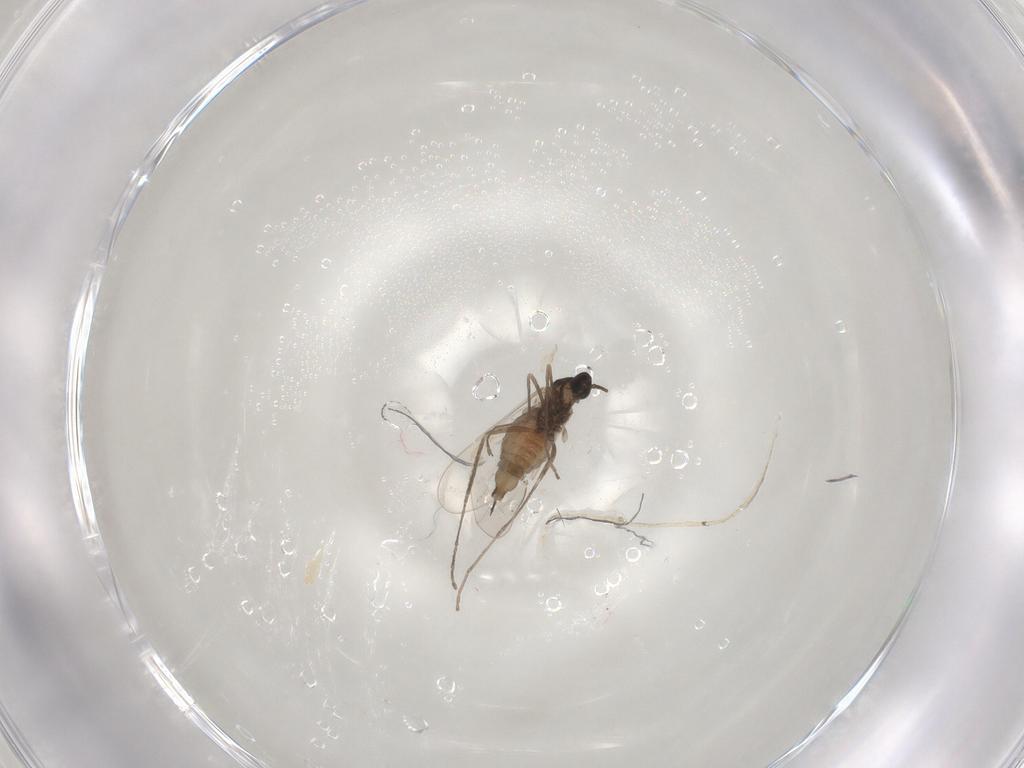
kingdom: Animalia
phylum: Arthropoda
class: Insecta
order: Diptera
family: Cecidomyiidae
